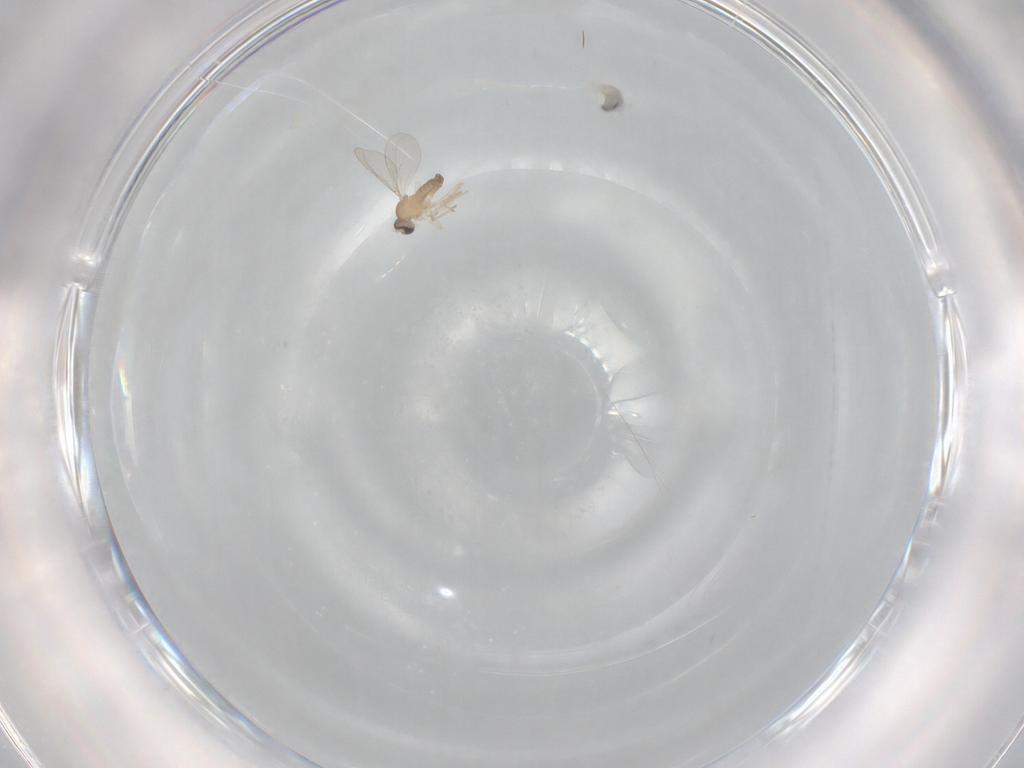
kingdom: Animalia
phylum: Arthropoda
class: Insecta
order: Diptera
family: Cecidomyiidae
